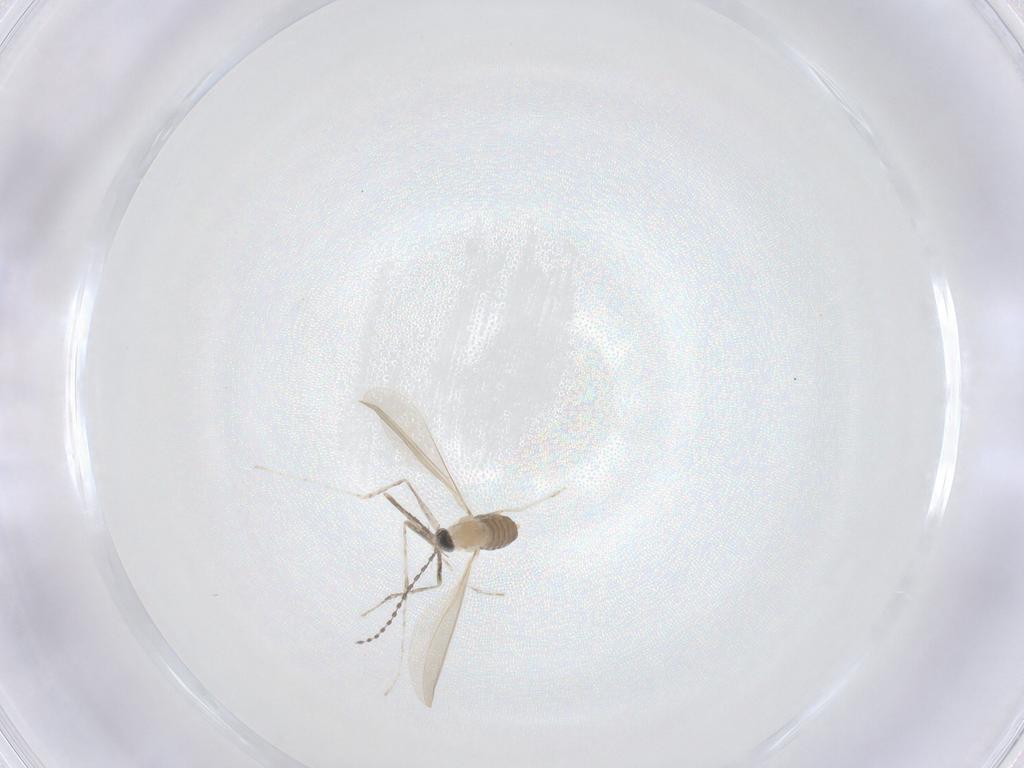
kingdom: Animalia
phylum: Arthropoda
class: Insecta
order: Diptera
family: Cecidomyiidae
